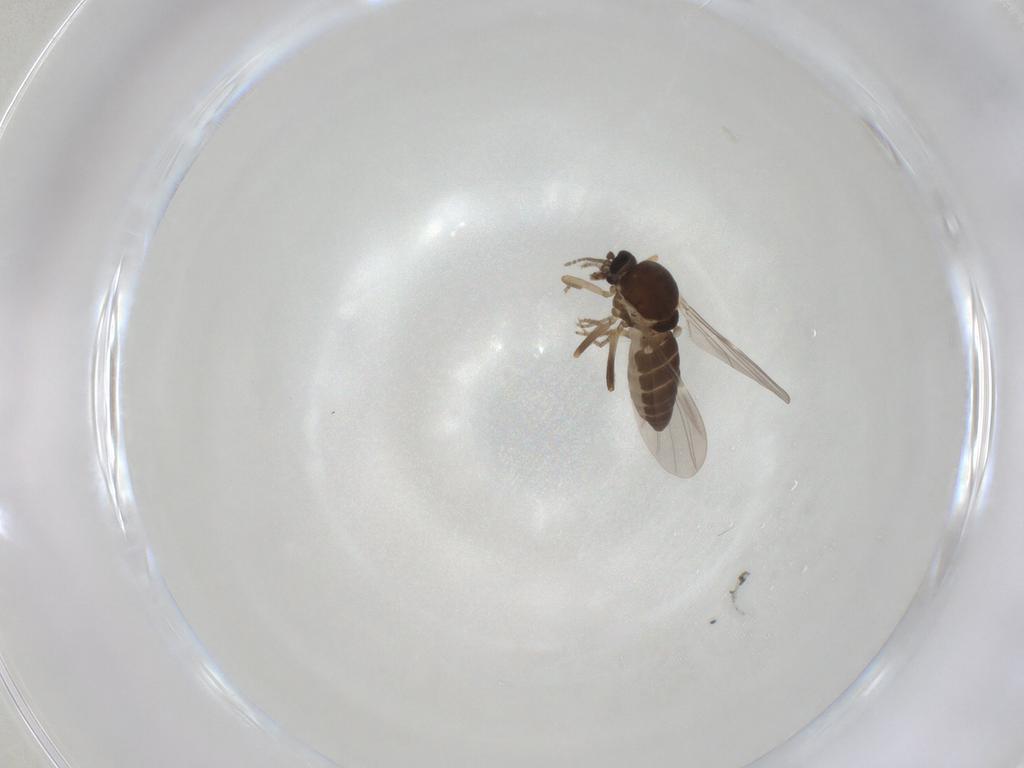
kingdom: Animalia
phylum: Arthropoda
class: Insecta
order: Diptera
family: Ceratopogonidae
